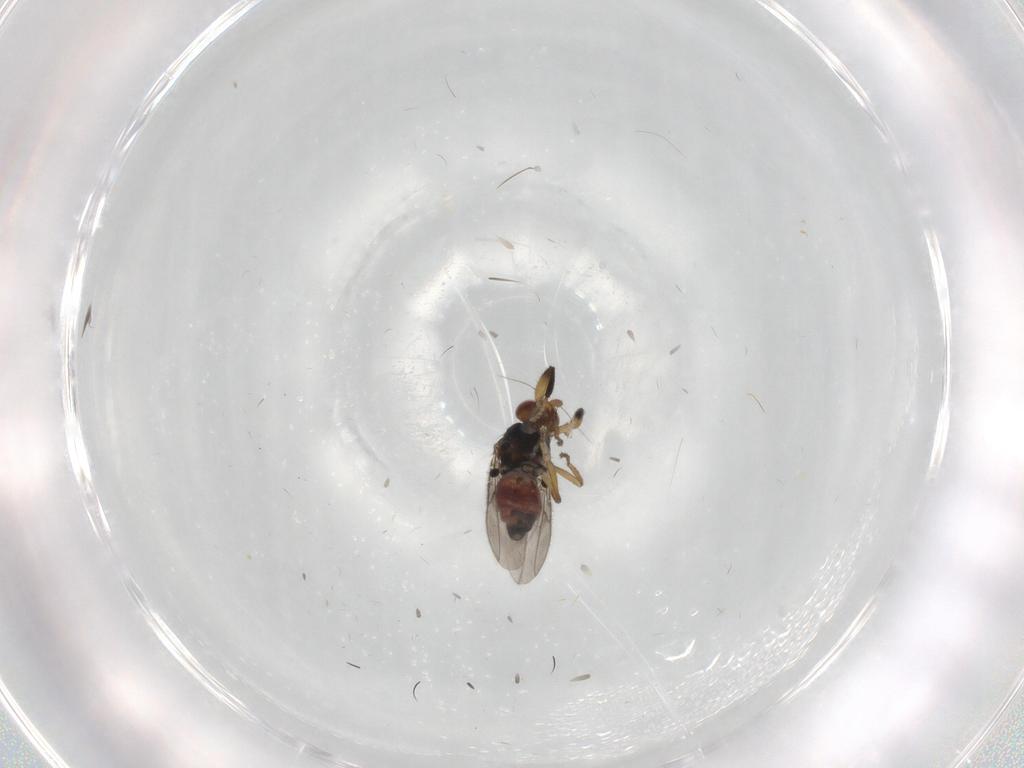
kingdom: Animalia
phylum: Arthropoda
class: Insecta
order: Diptera
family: Sphaeroceridae
